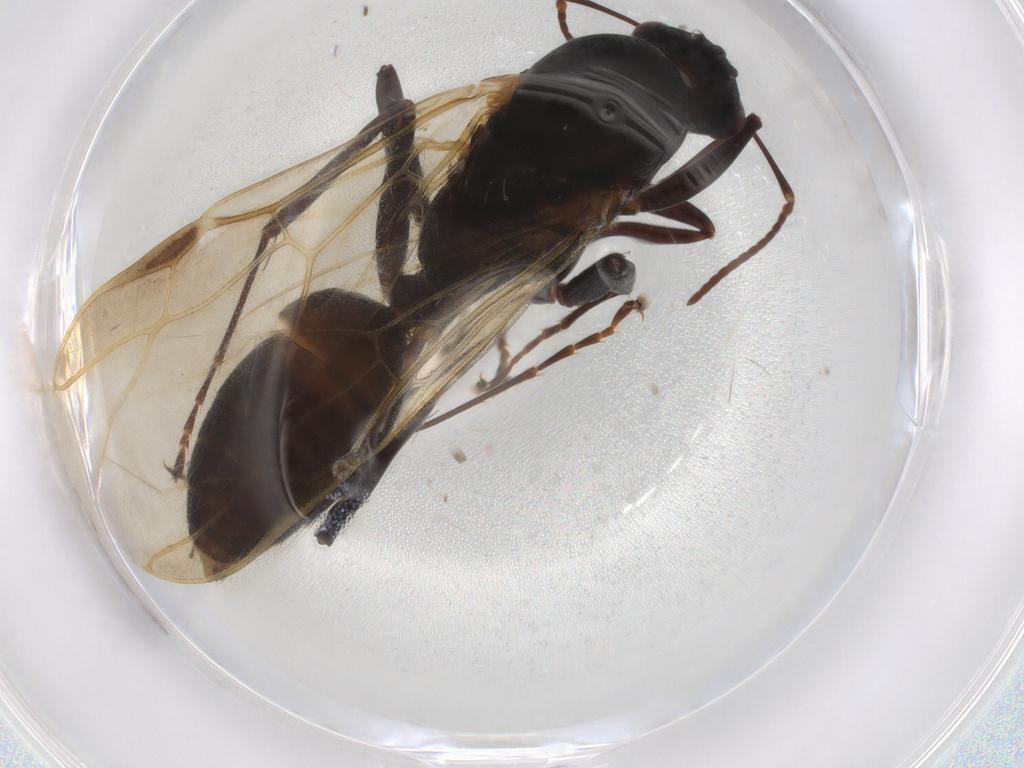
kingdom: Animalia
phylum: Arthropoda
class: Insecta
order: Hymenoptera
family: Formicidae
